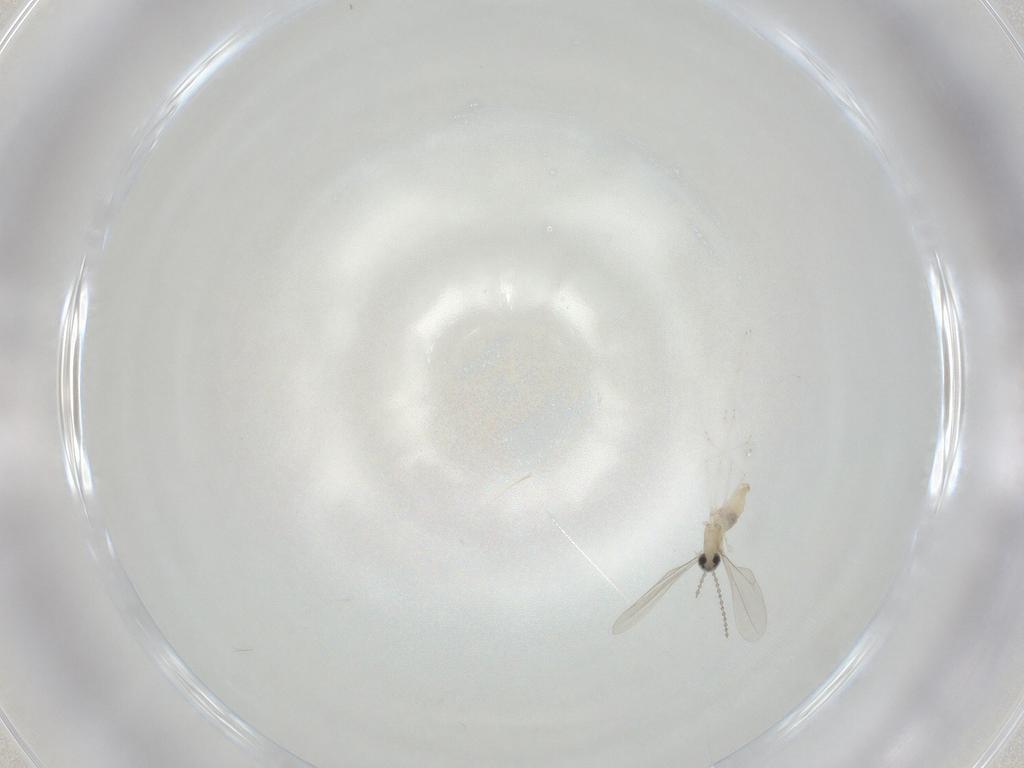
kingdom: Animalia
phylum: Arthropoda
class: Insecta
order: Diptera
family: Cecidomyiidae
